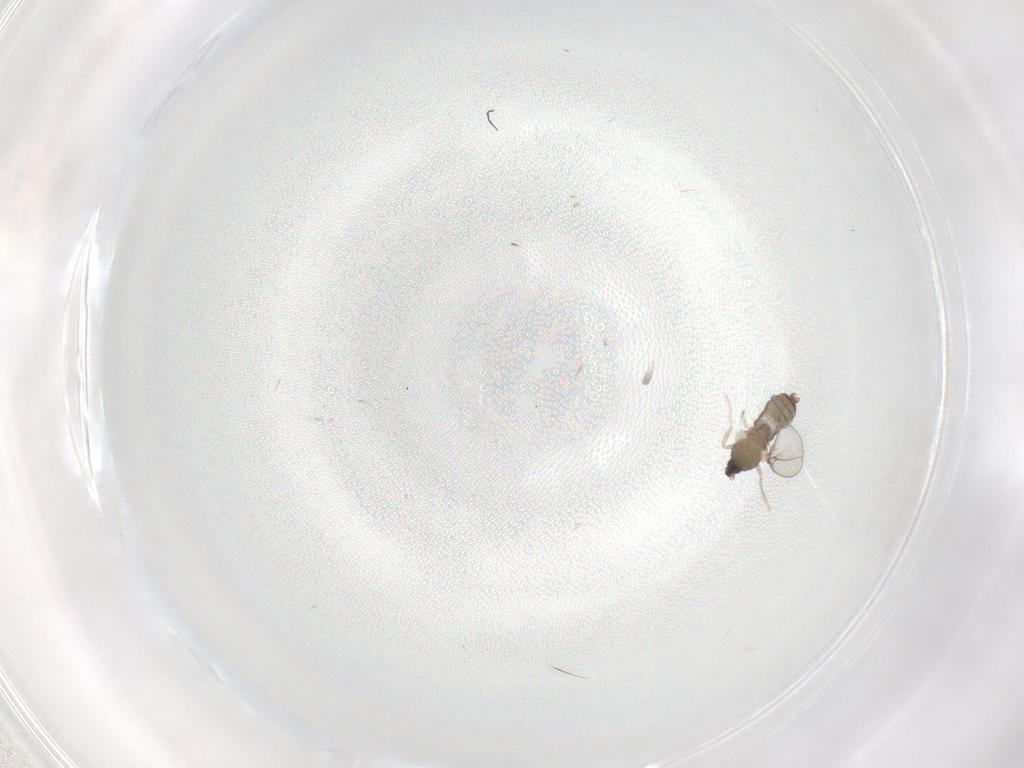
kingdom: Animalia
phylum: Arthropoda
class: Insecta
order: Diptera
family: Cecidomyiidae
